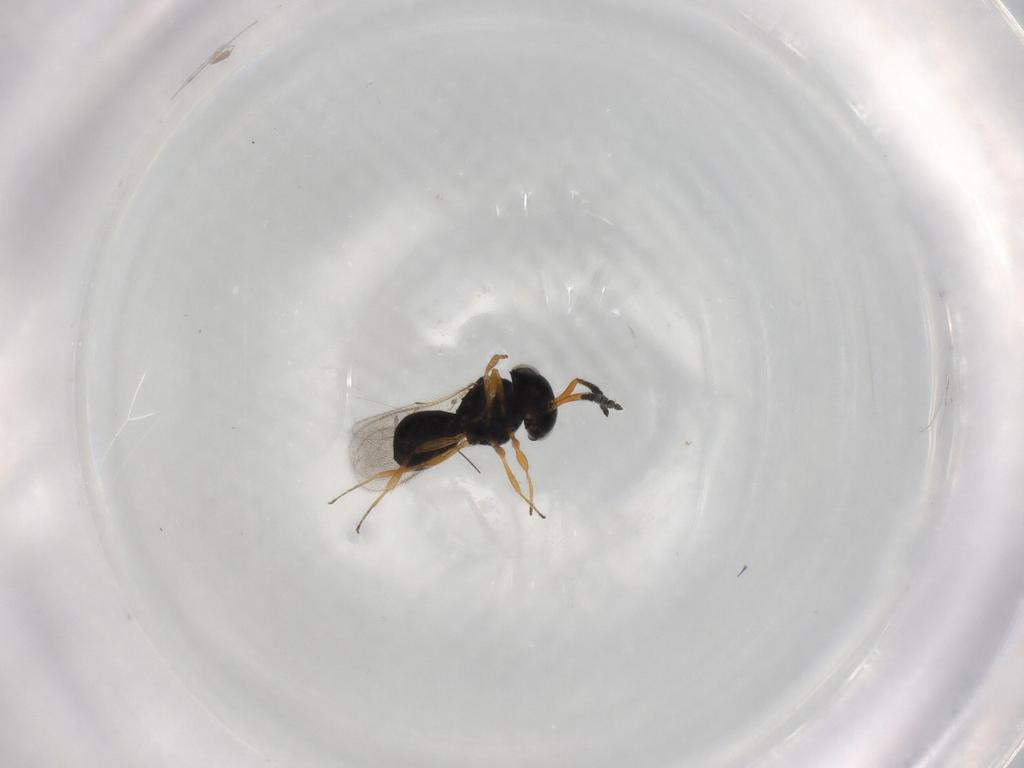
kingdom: Animalia
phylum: Arthropoda
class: Insecta
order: Hymenoptera
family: Scelionidae
